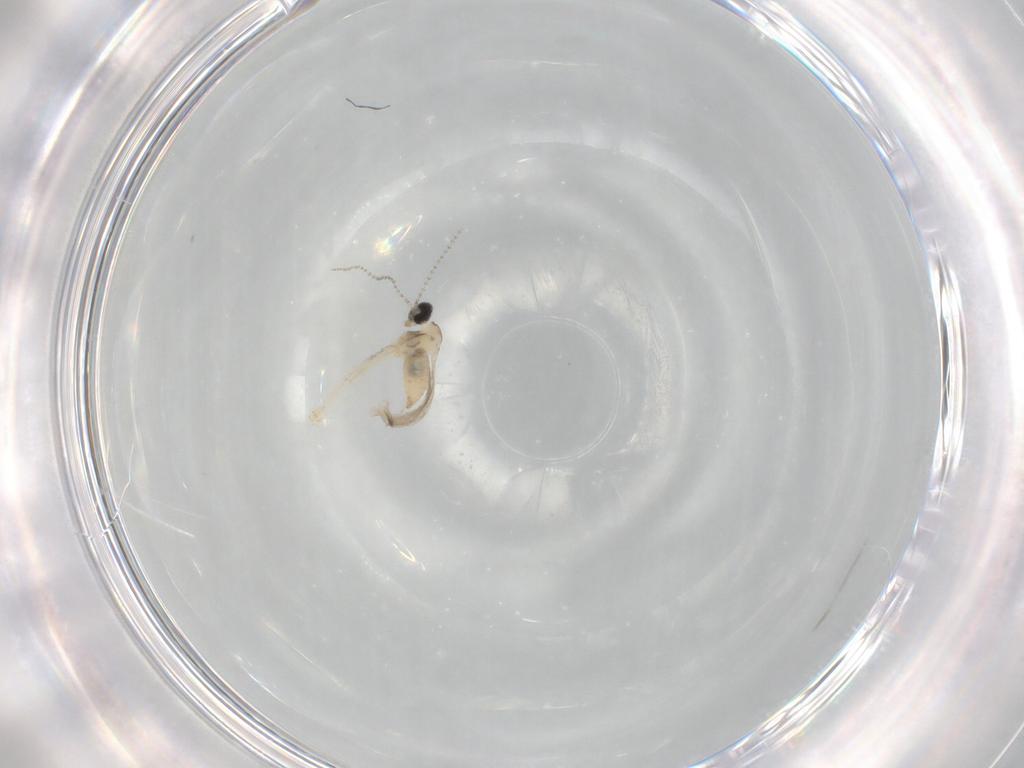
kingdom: Animalia
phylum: Arthropoda
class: Insecta
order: Diptera
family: Cecidomyiidae
